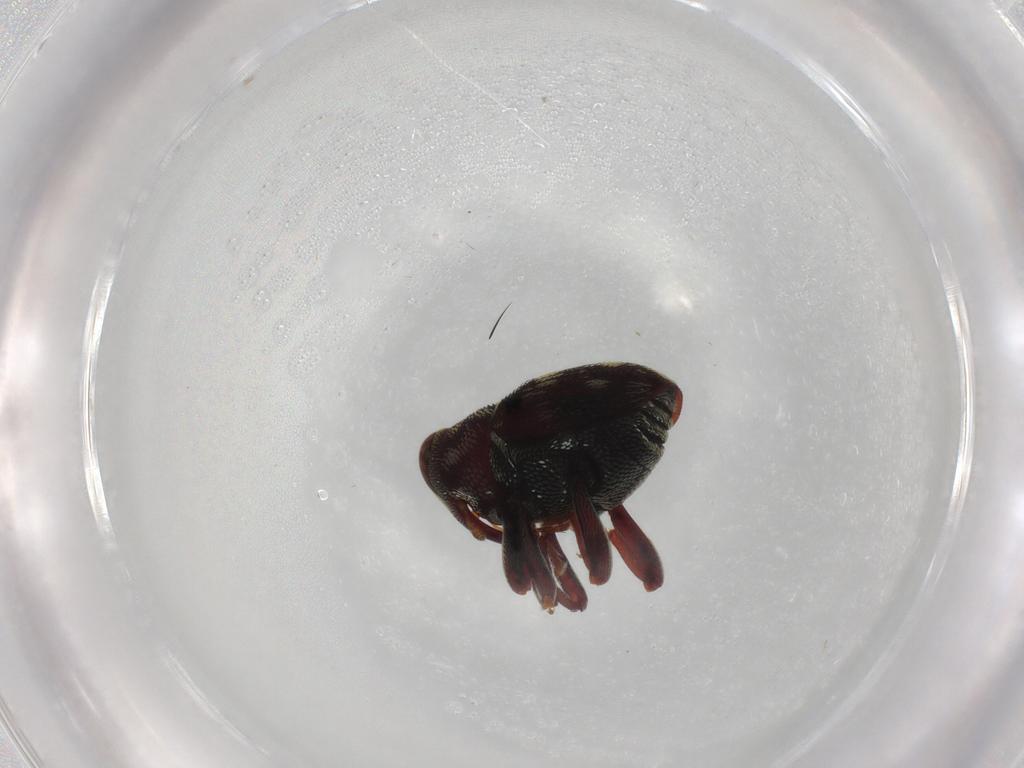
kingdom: Animalia
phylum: Arthropoda
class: Insecta
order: Coleoptera
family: Curculionidae
